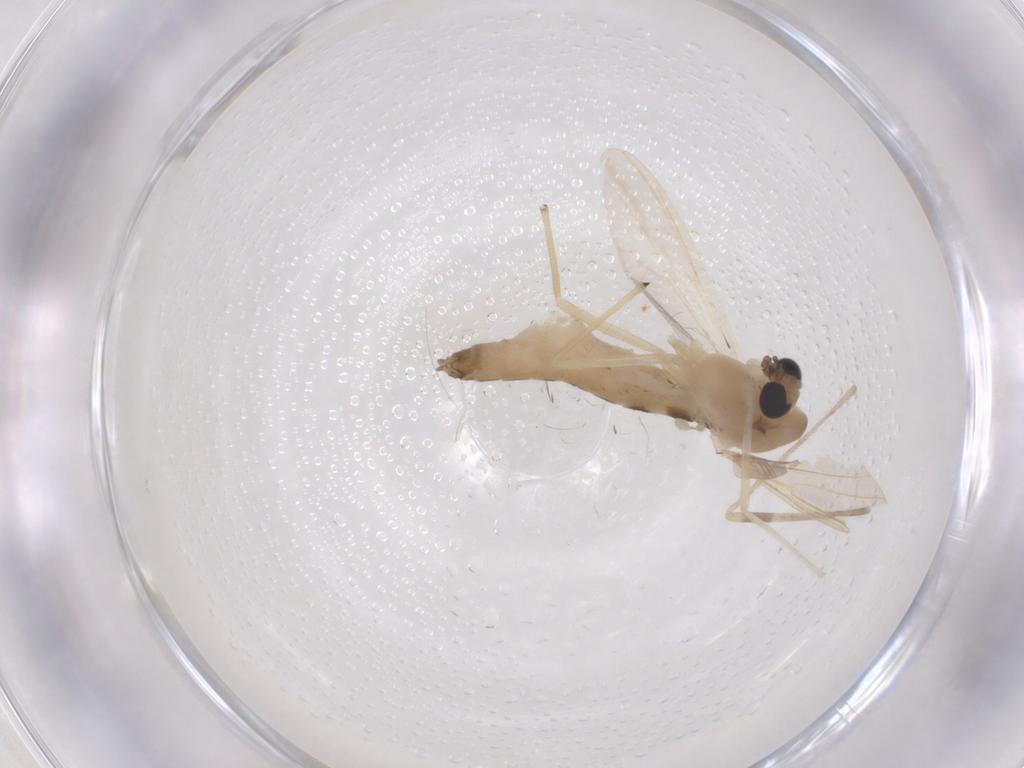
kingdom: Animalia
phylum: Arthropoda
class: Insecta
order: Diptera
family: Chironomidae
